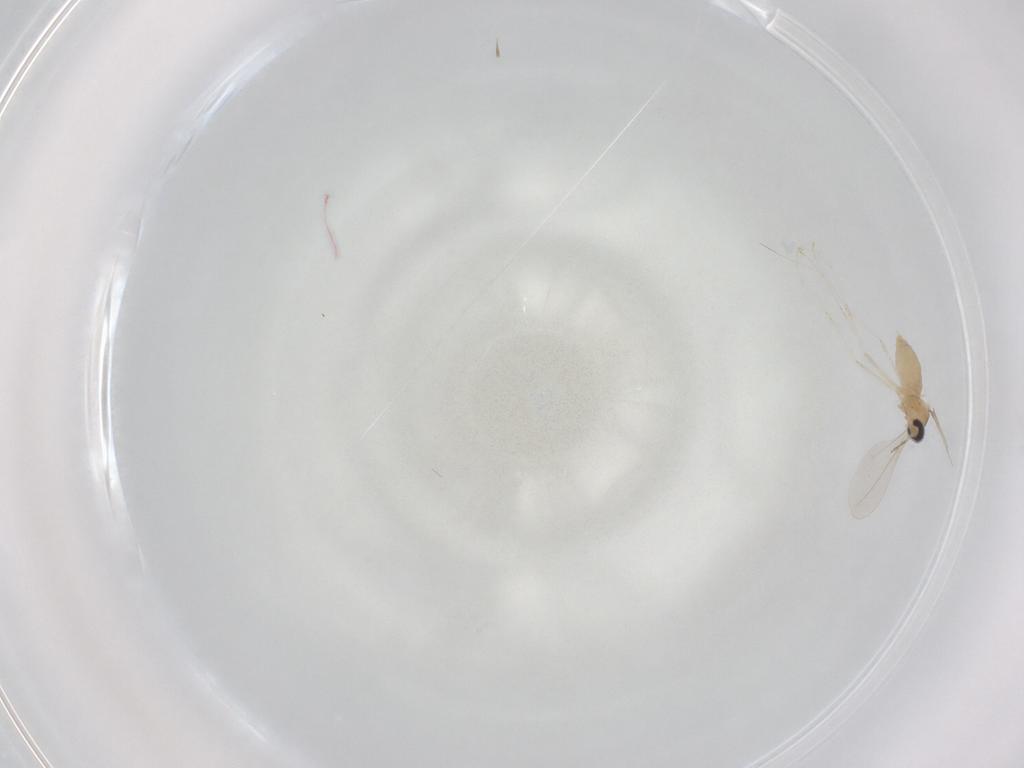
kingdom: Animalia
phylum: Arthropoda
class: Insecta
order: Diptera
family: Cecidomyiidae
